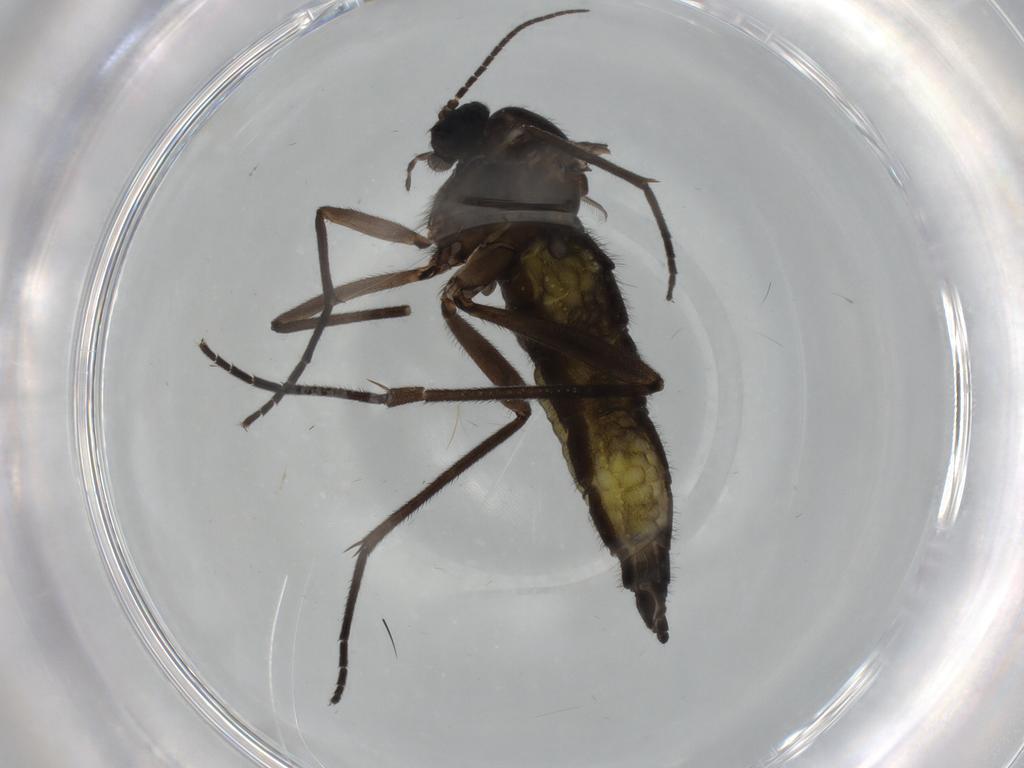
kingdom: Animalia
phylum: Arthropoda
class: Insecta
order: Diptera
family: Sciaridae
